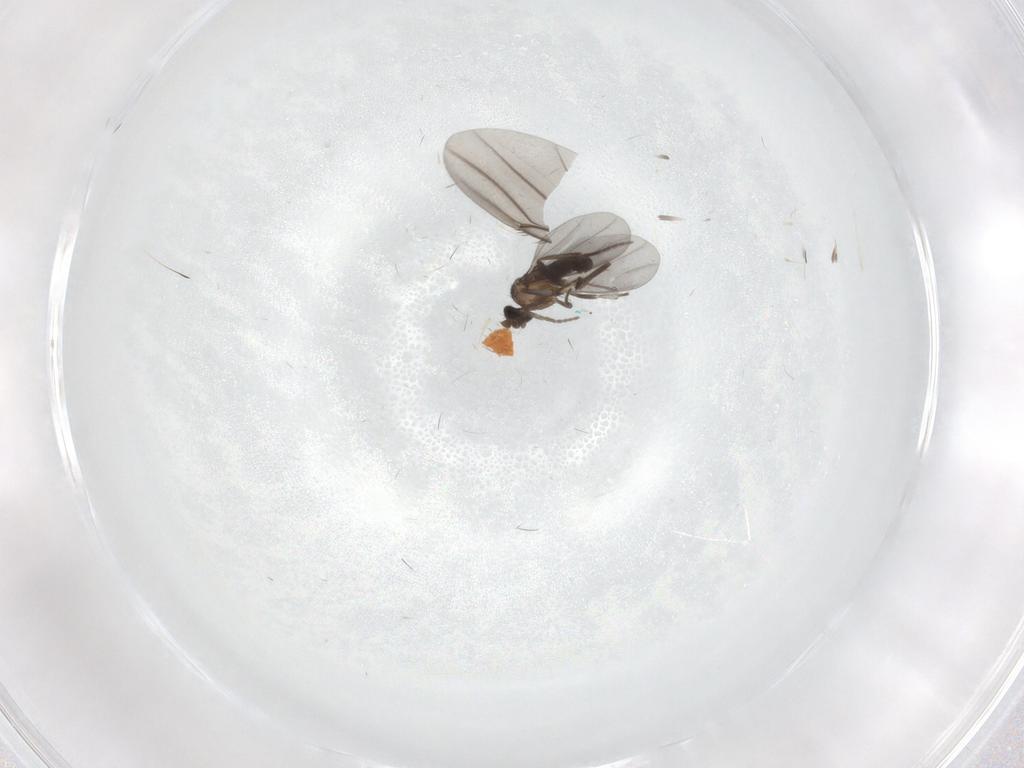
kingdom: Animalia
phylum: Arthropoda
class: Insecta
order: Diptera
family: Phoridae
